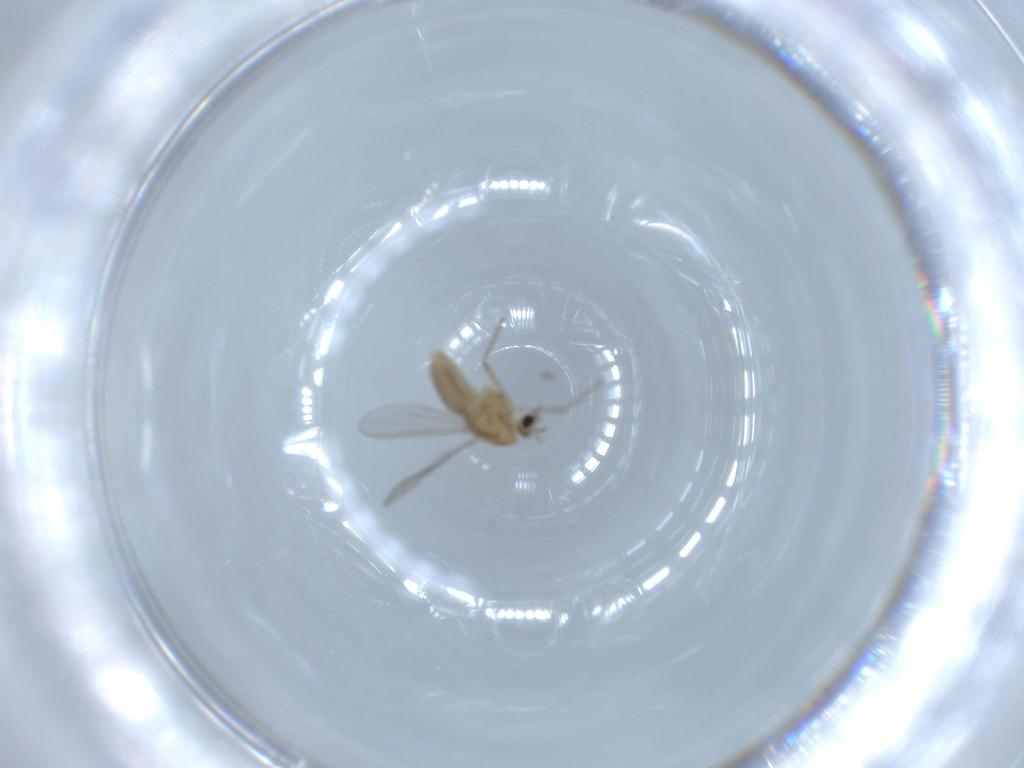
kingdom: Animalia
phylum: Arthropoda
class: Insecta
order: Diptera
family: Chironomidae
